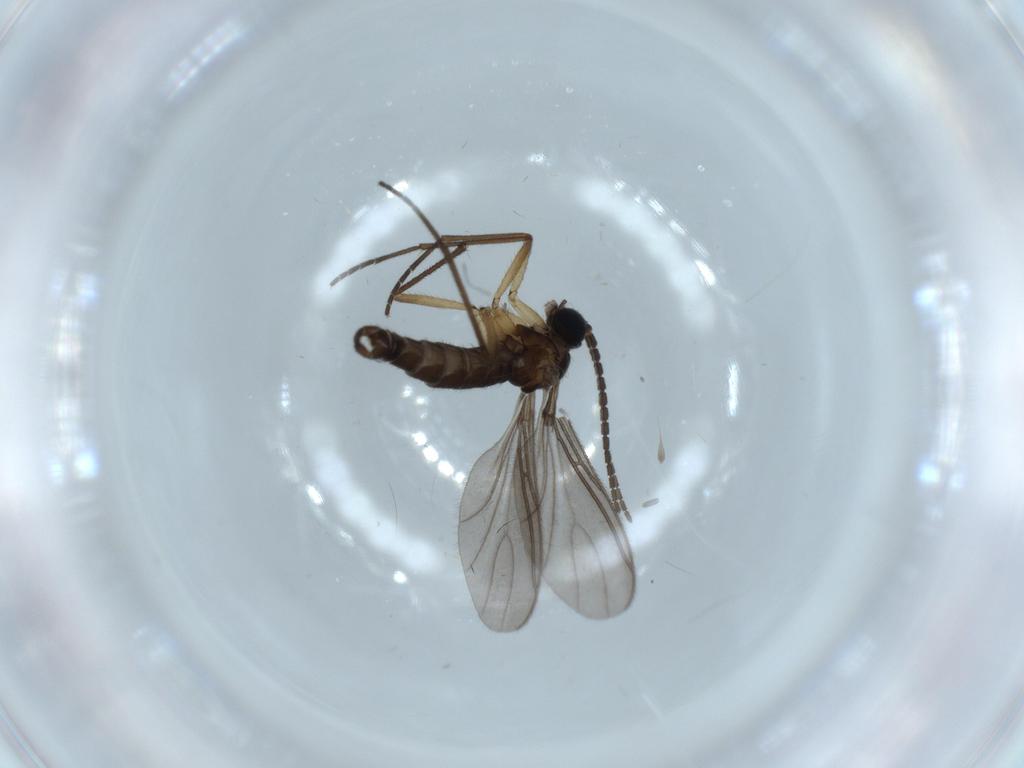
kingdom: Animalia
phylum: Arthropoda
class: Insecta
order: Diptera
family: Sciaridae
